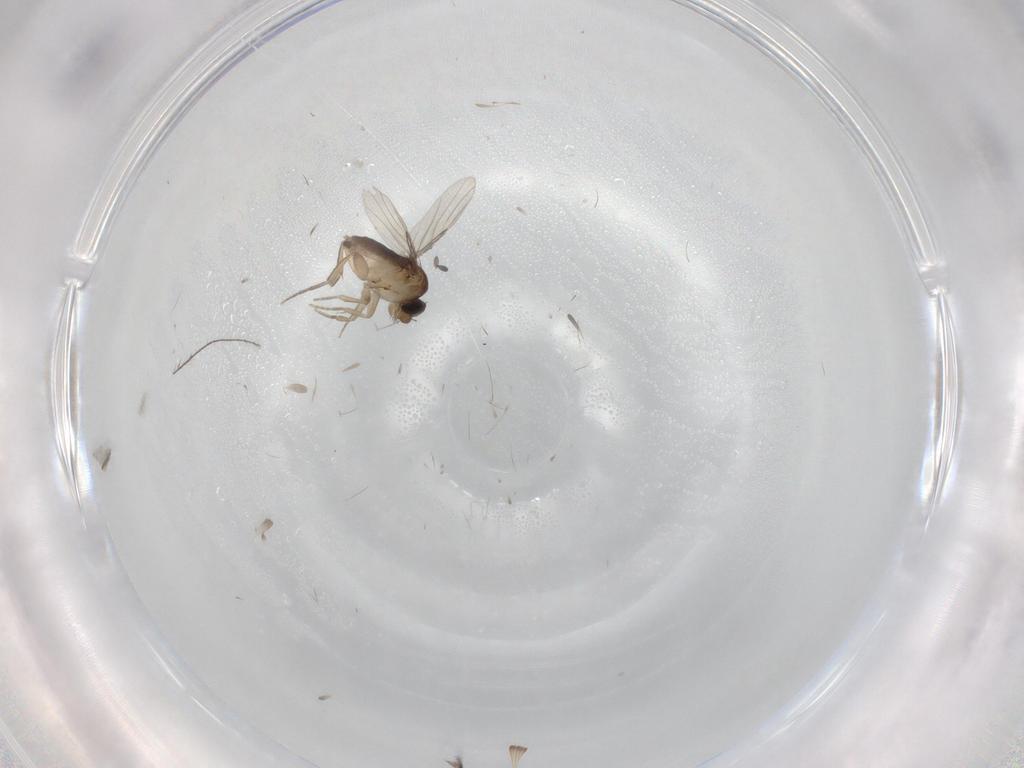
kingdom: Animalia
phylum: Arthropoda
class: Insecta
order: Diptera
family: Phoridae
